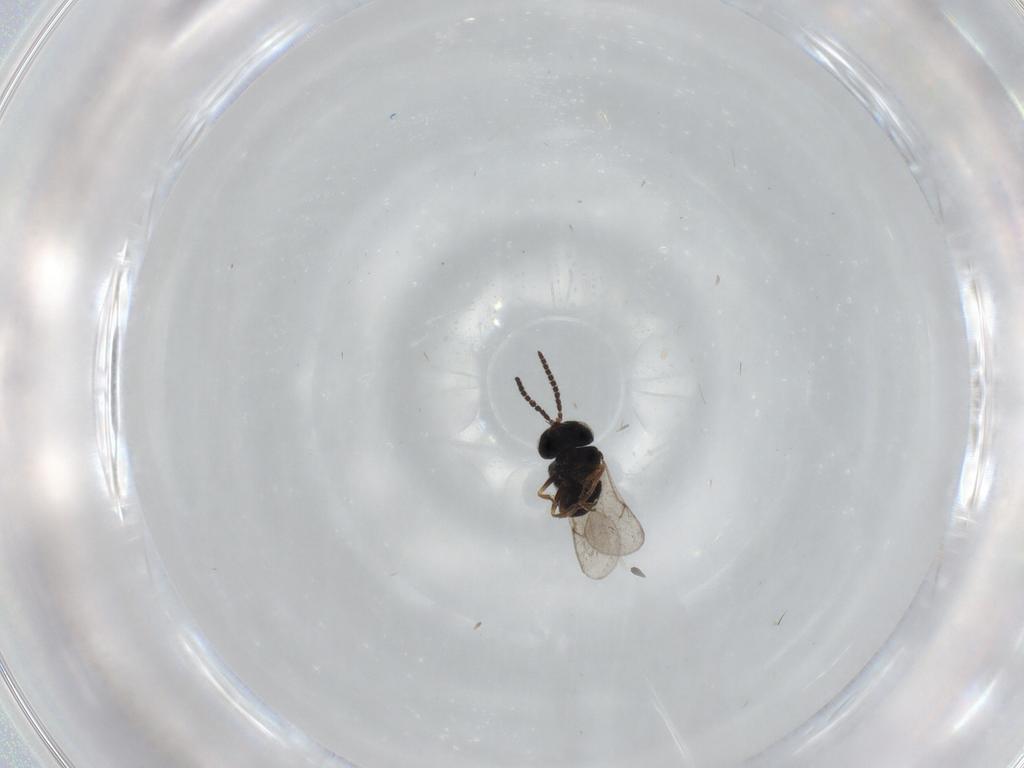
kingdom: Animalia
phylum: Arthropoda
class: Insecta
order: Hymenoptera
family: Scelionidae
